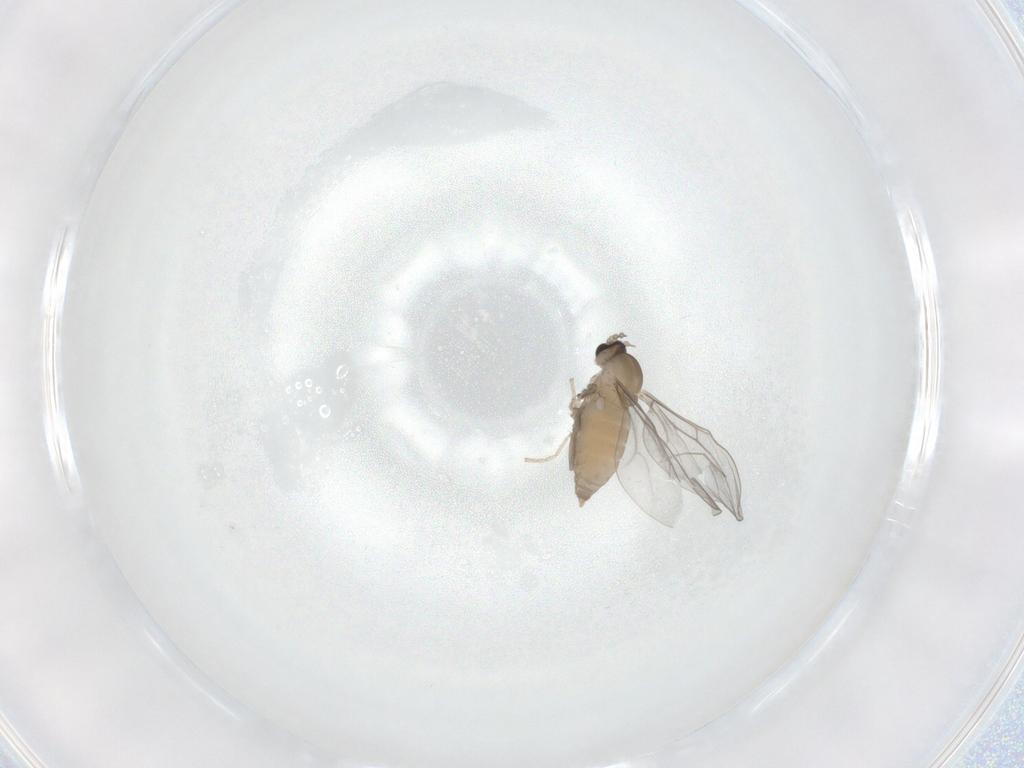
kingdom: Animalia
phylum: Arthropoda
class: Insecta
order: Diptera
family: Cecidomyiidae
